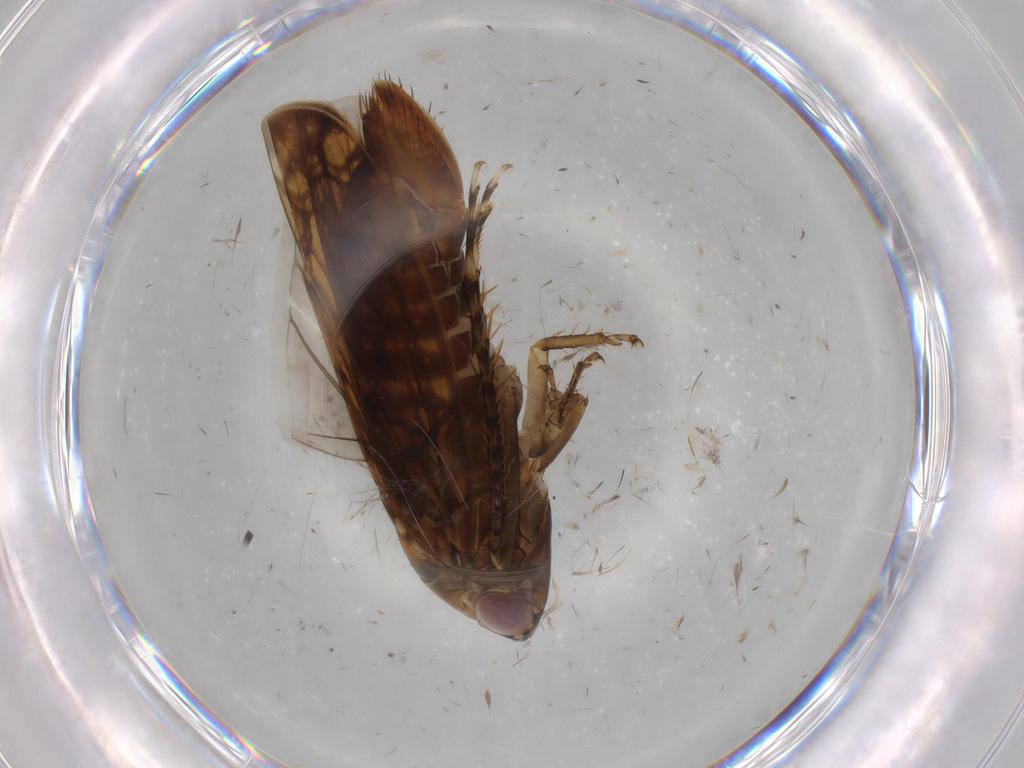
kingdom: Animalia
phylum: Arthropoda
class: Insecta
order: Hemiptera
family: Cicadellidae
